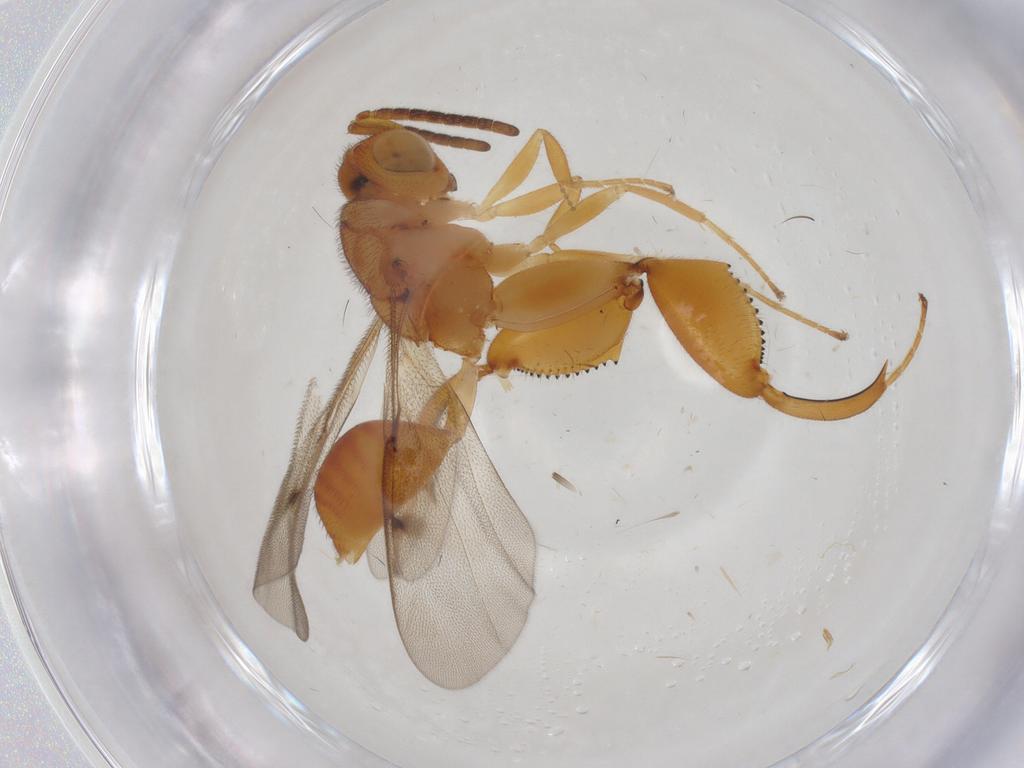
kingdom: Animalia
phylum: Arthropoda
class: Insecta
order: Hymenoptera
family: Chalcididae
